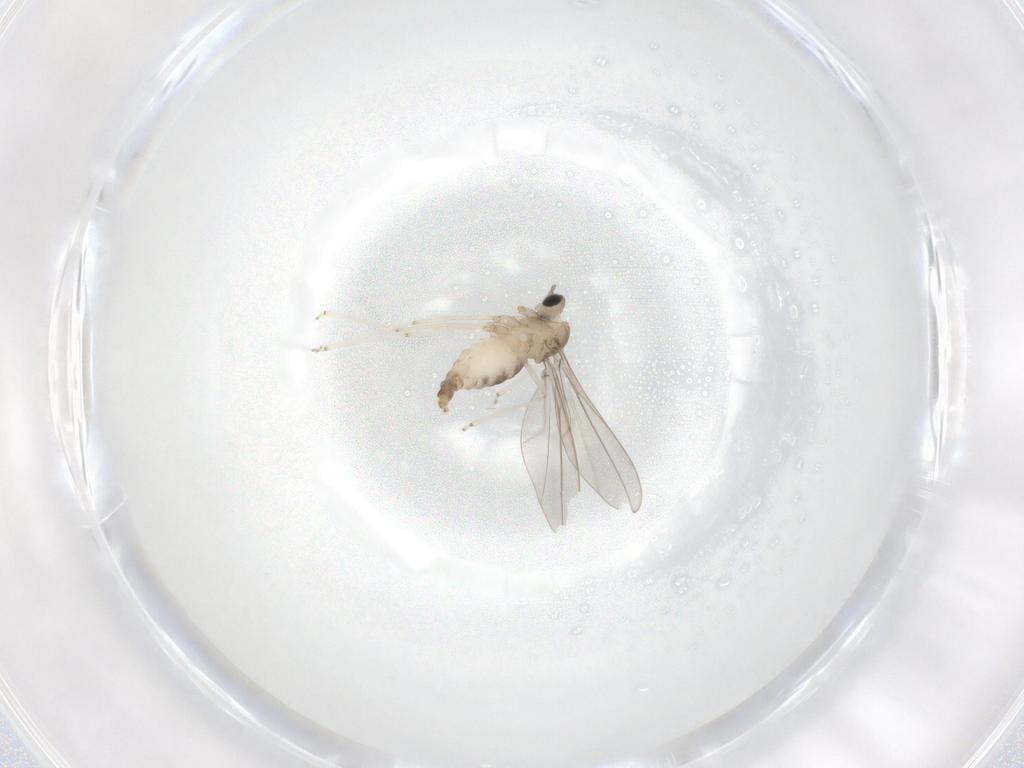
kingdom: Animalia
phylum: Arthropoda
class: Insecta
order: Diptera
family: Cecidomyiidae
